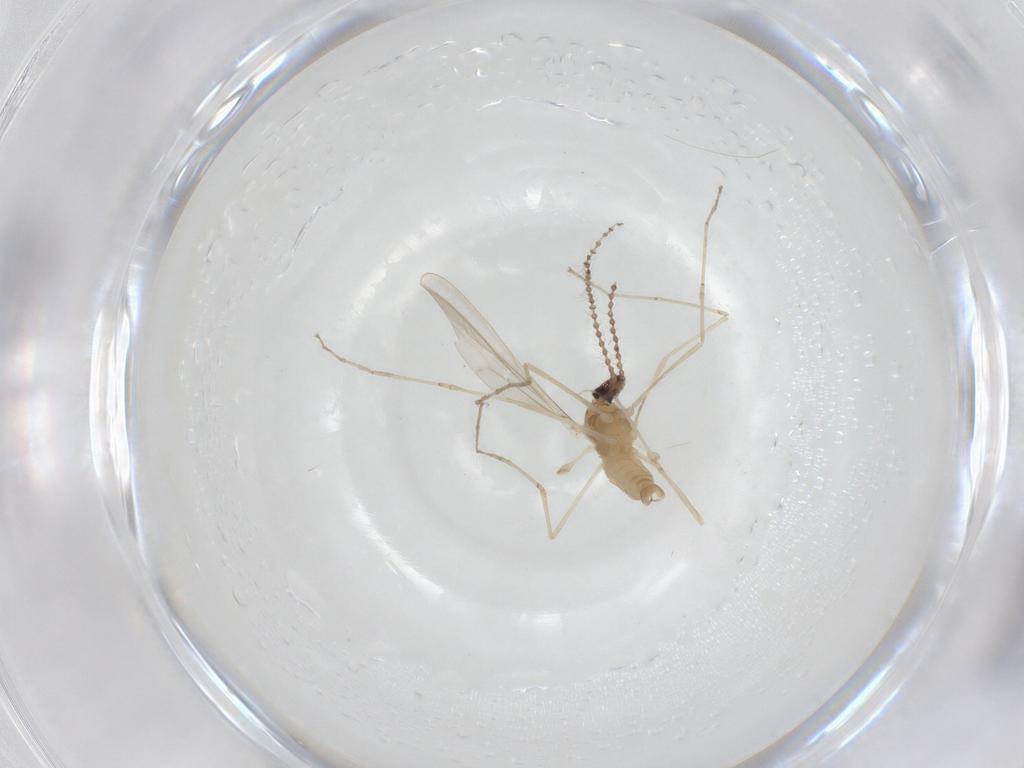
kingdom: Animalia
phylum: Arthropoda
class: Insecta
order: Diptera
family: Cecidomyiidae
